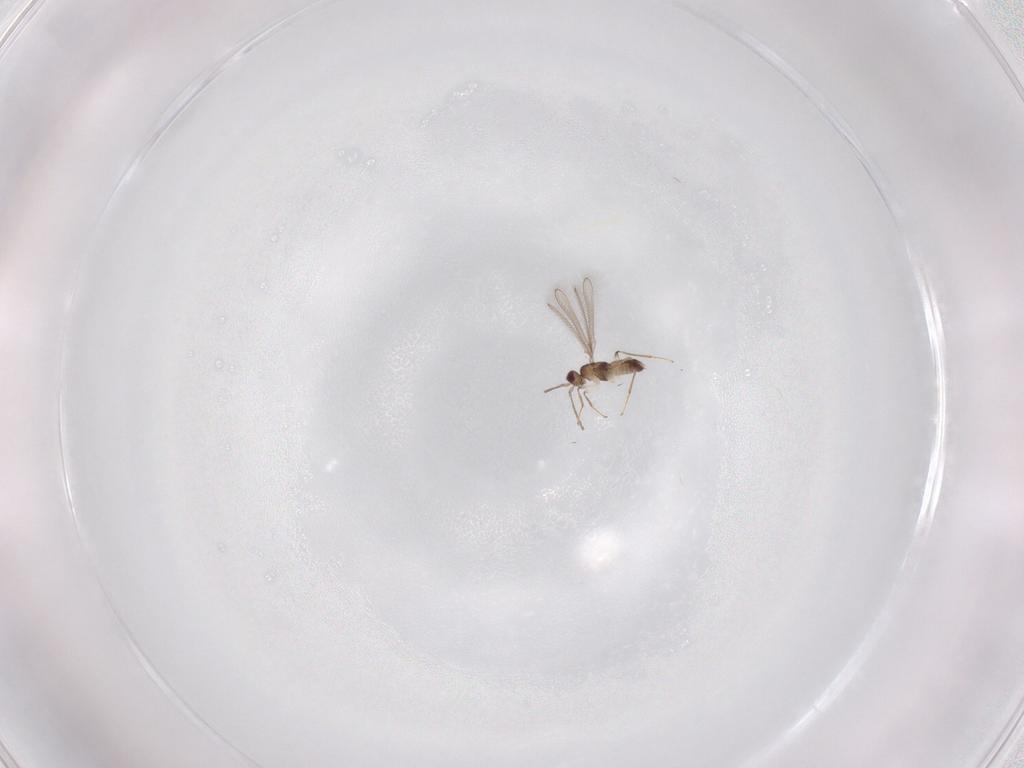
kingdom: Animalia
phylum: Arthropoda
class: Insecta
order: Hymenoptera
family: Mymaridae
